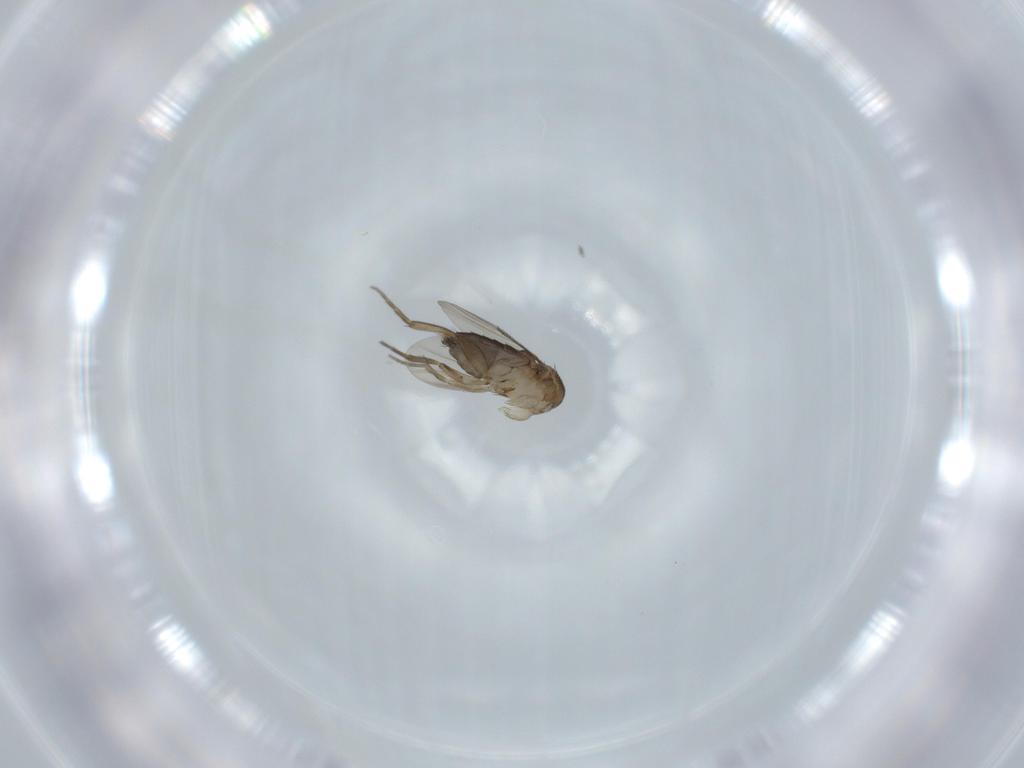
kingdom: Animalia
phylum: Arthropoda
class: Insecta
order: Diptera
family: Phoridae
